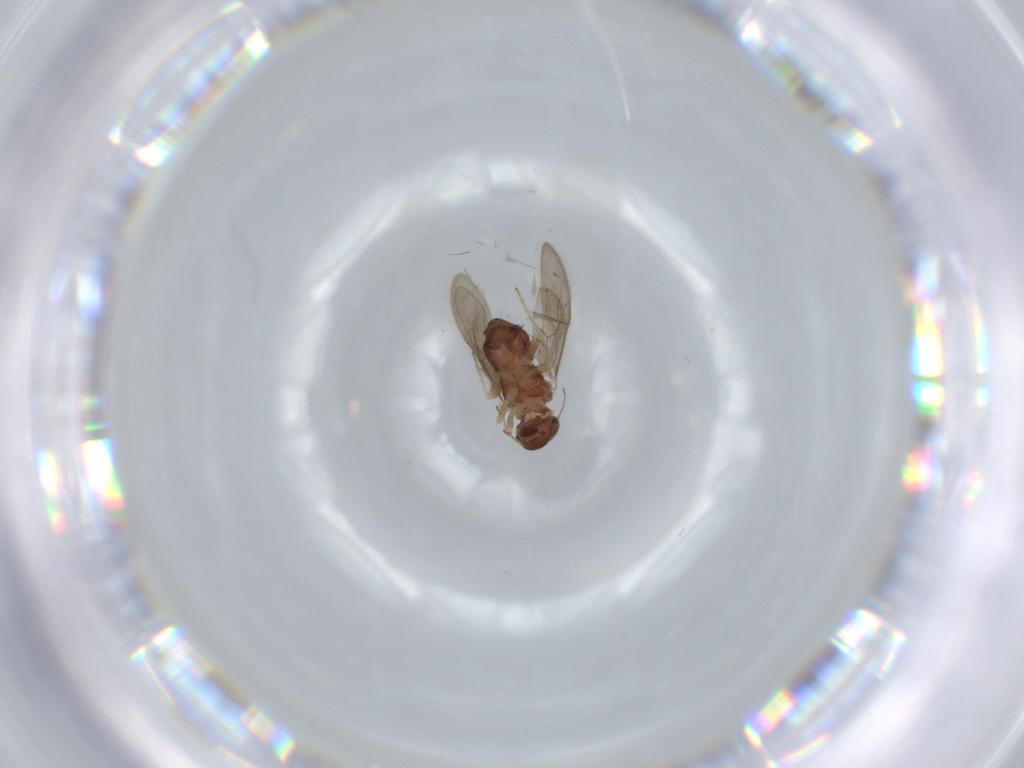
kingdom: Animalia
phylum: Arthropoda
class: Insecta
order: Psocodea
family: Archipsocidae
